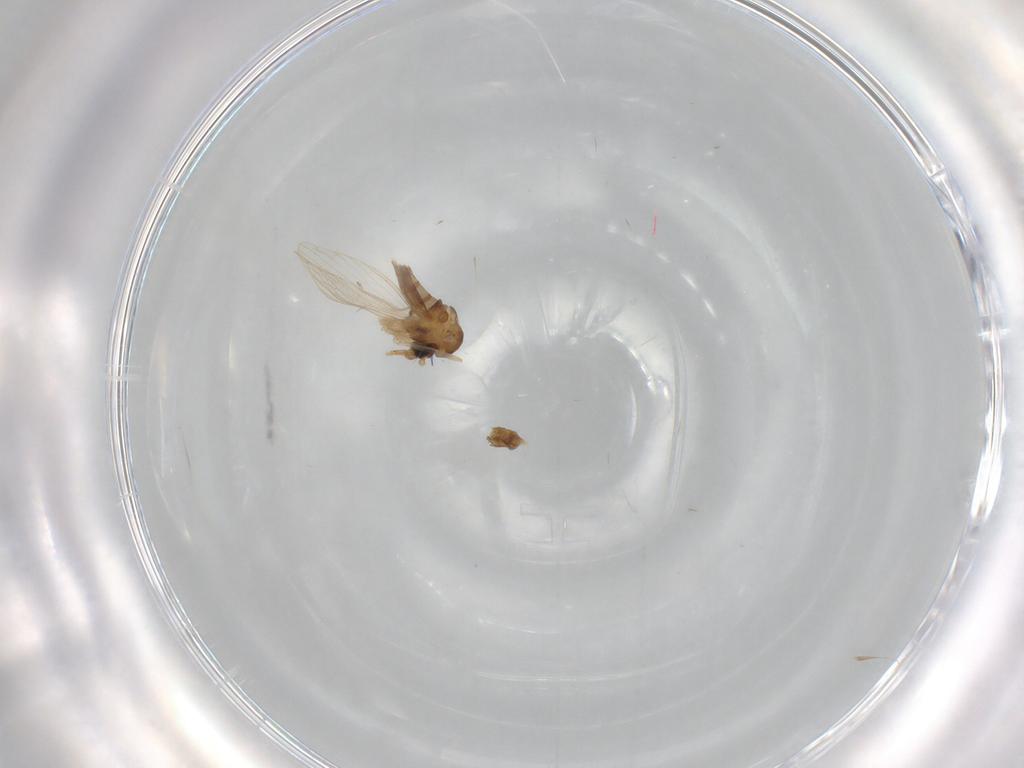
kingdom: Animalia
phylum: Arthropoda
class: Insecta
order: Diptera
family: Psychodidae
